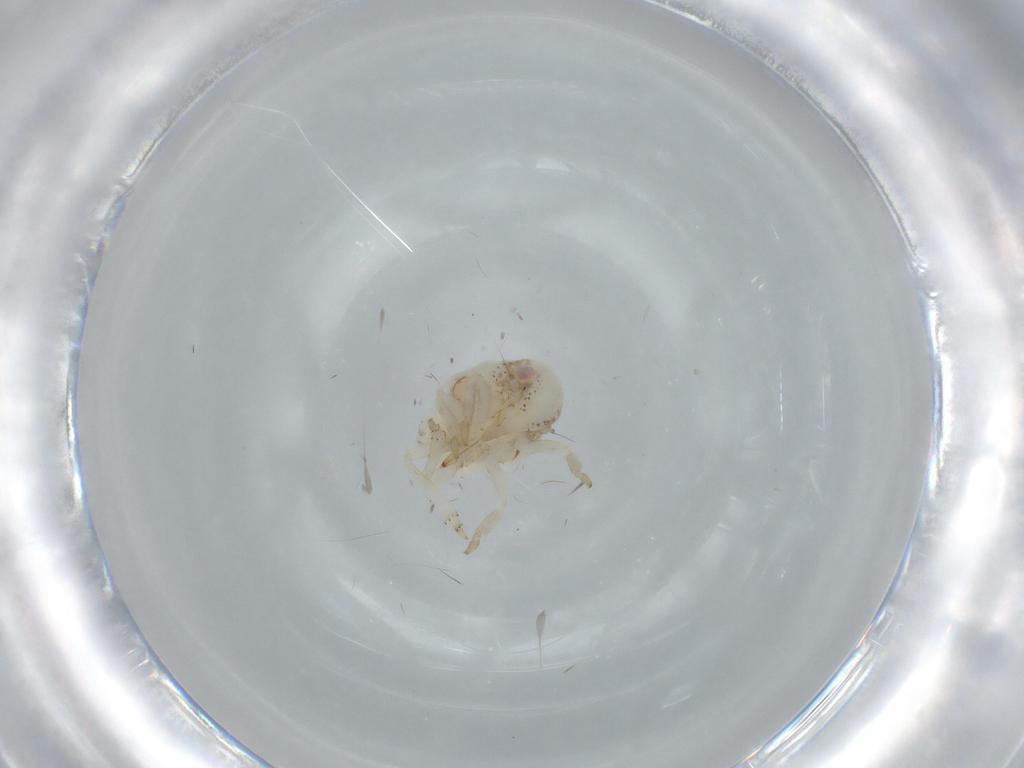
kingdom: Animalia
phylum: Arthropoda
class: Insecta
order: Hemiptera
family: Acanaloniidae
